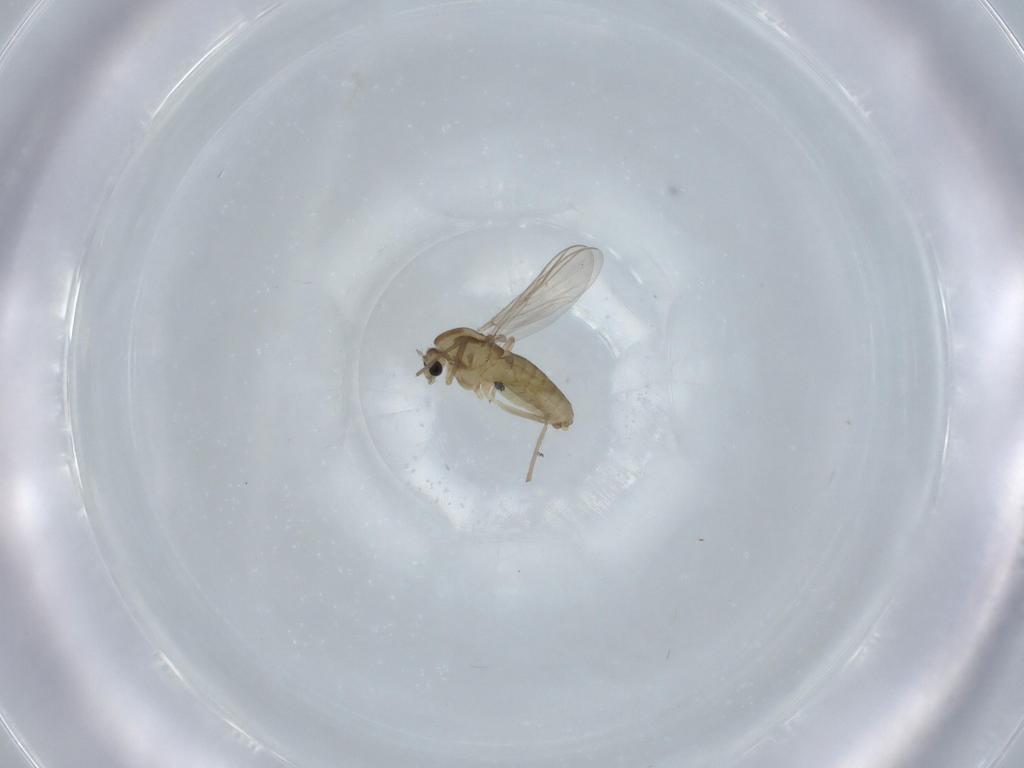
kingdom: Animalia
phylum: Arthropoda
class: Insecta
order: Diptera
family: Chironomidae
